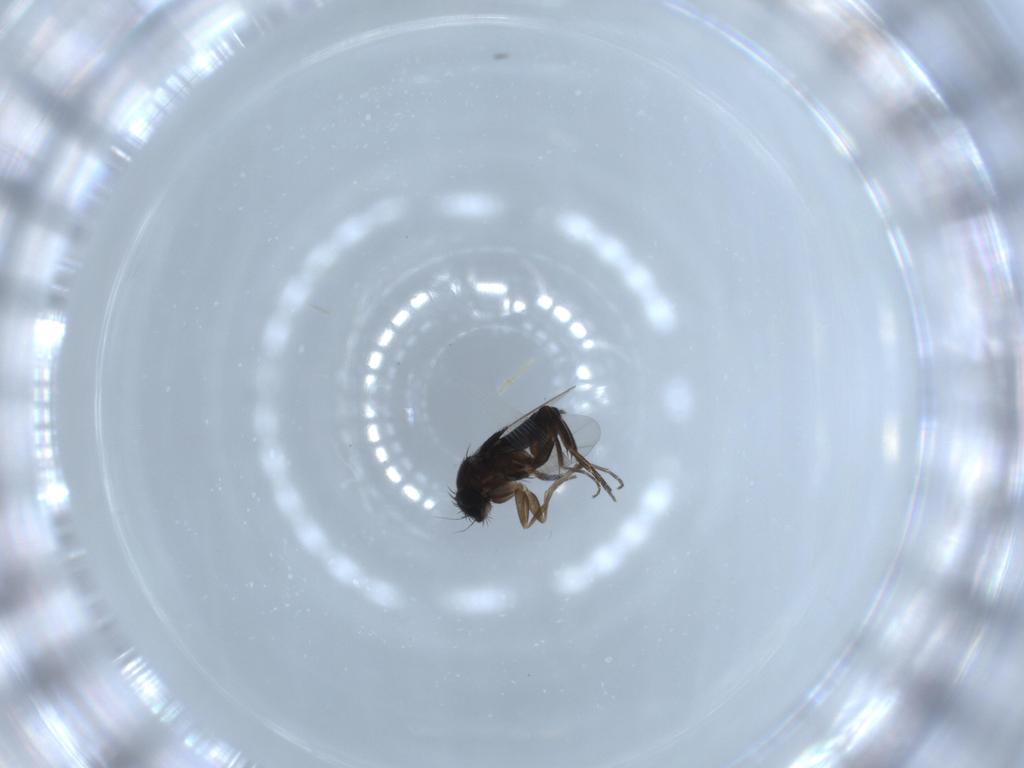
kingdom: Animalia
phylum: Arthropoda
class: Insecta
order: Diptera
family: Phoridae
